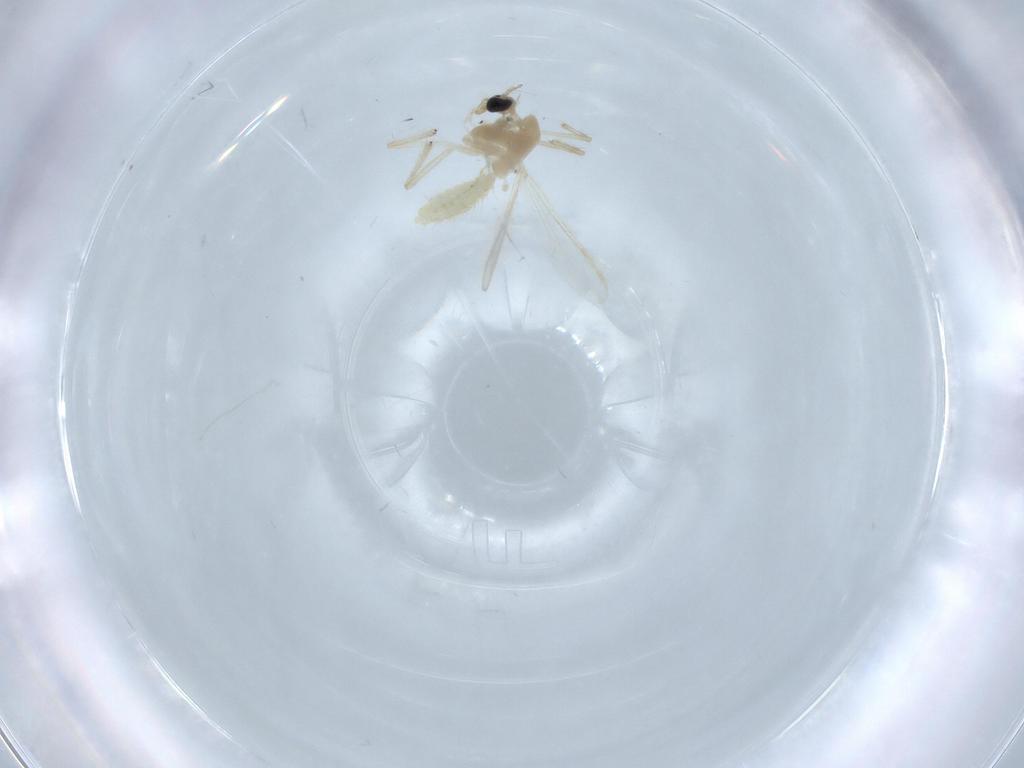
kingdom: Animalia
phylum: Arthropoda
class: Insecta
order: Diptera
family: Chironomidae
